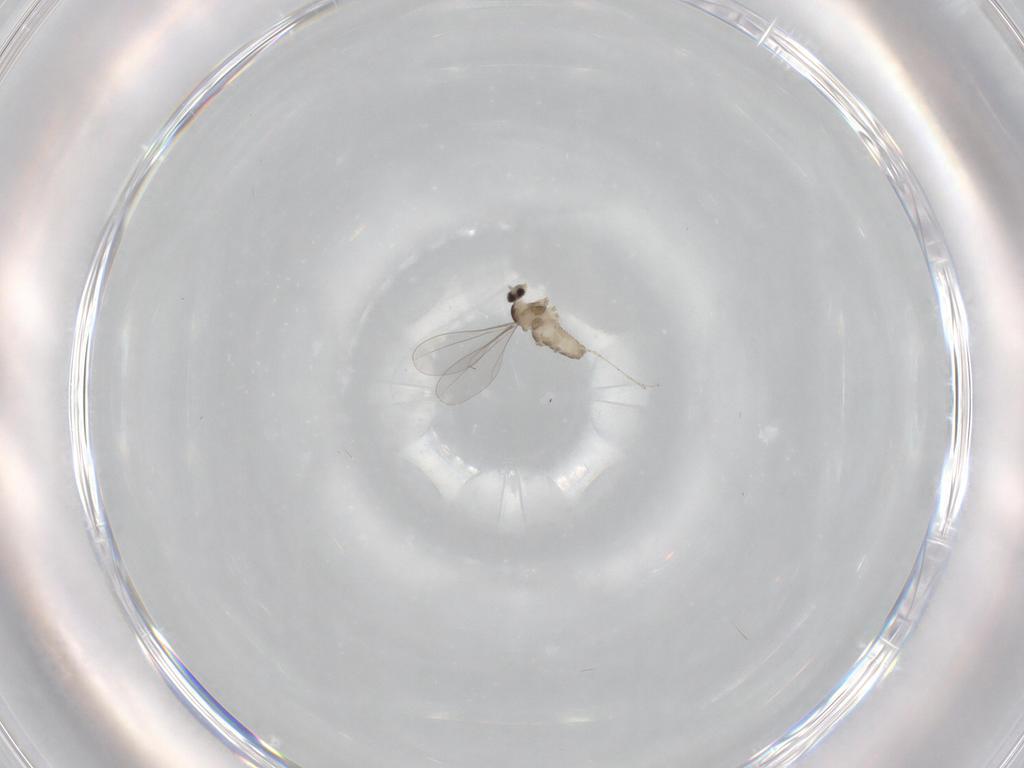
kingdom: Animalia
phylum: Arthropoda
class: Insecta
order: Diptera
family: Cecidomyiidae
